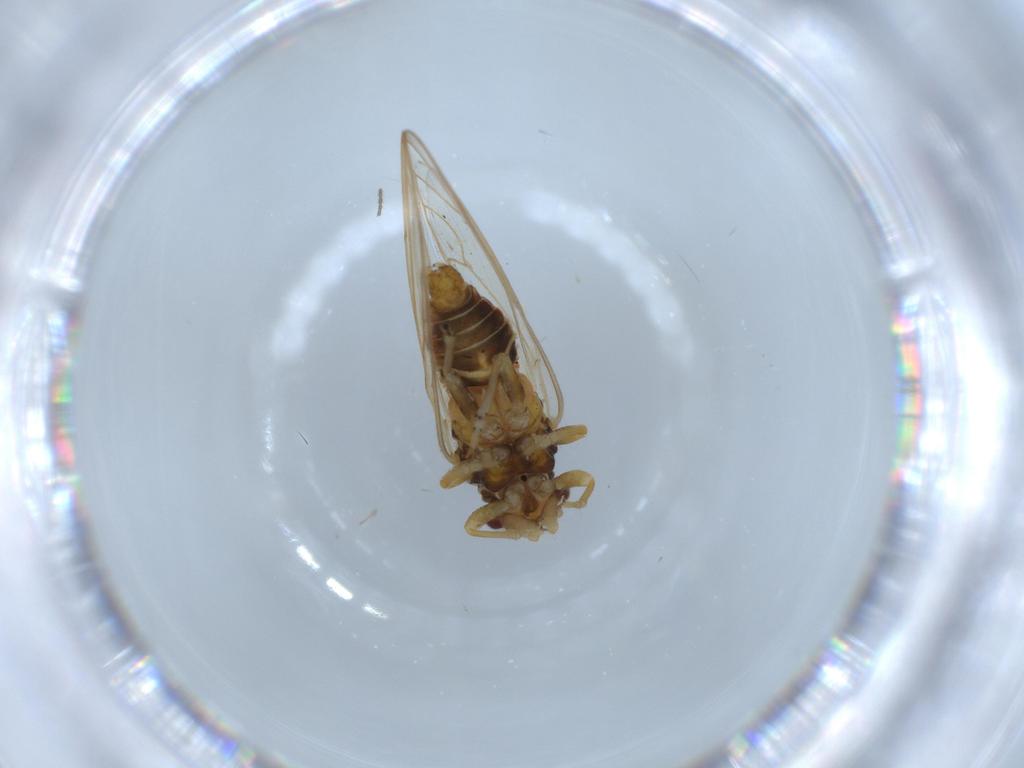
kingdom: Animalia
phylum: Arthropoda
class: Insecta
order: Hemiptera
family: Aleyrodidae
